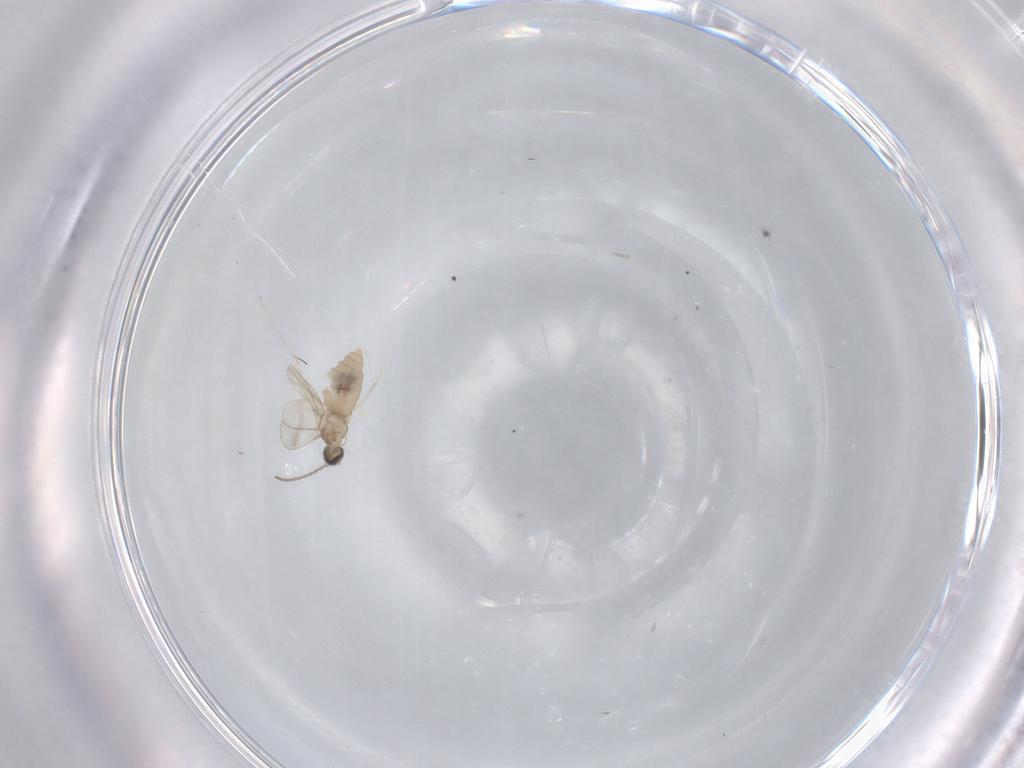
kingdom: Animalia
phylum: Arthropoda
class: Insecta
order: Diptera
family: Cecidomyiidae
